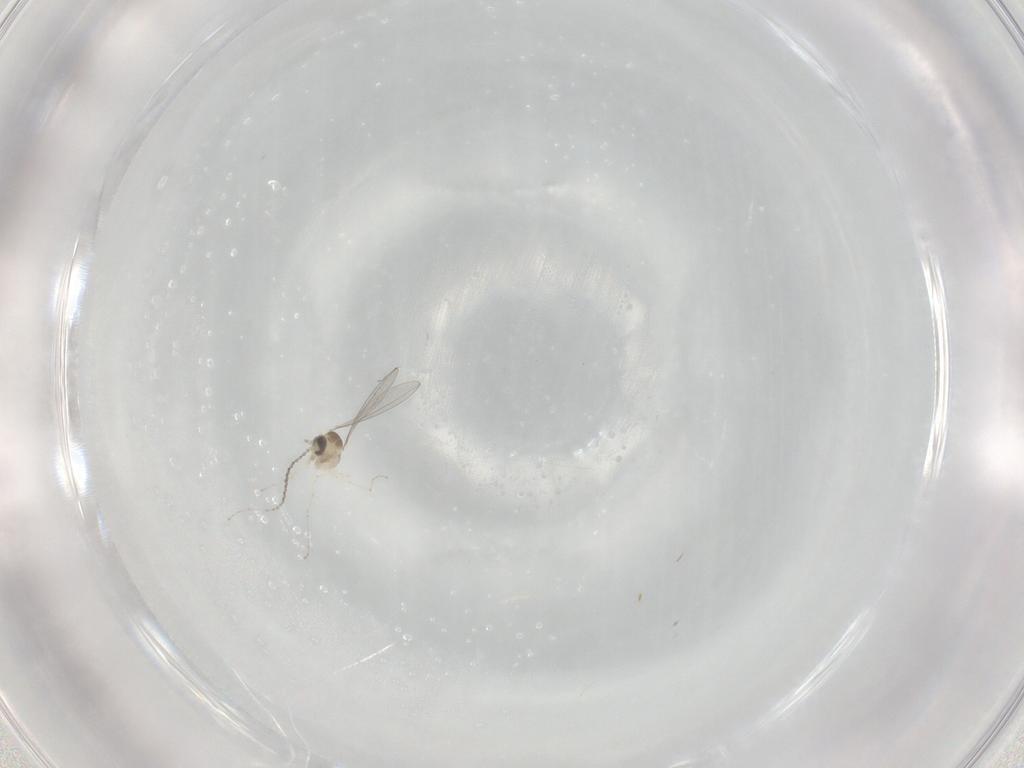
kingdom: Animalia
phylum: Arthropoda
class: Insecta
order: Diptera
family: Cecidomyiidae
